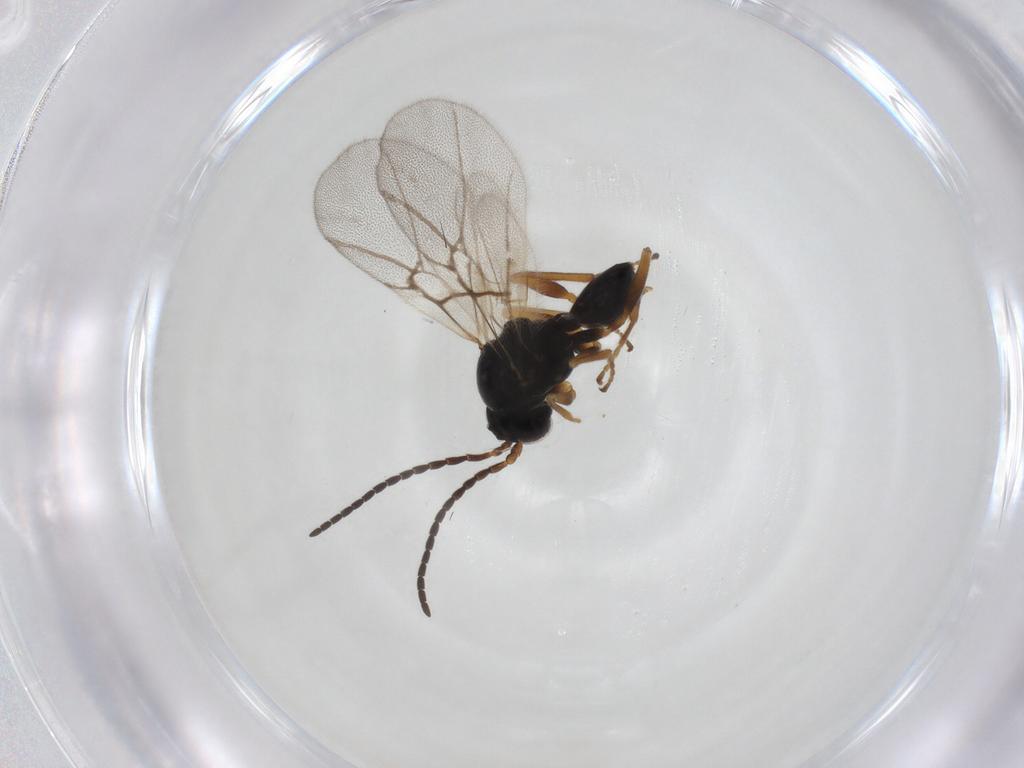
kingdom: Animalia
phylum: Arthropoda
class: Insecta
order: Hymenoptera
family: Cynipidae
